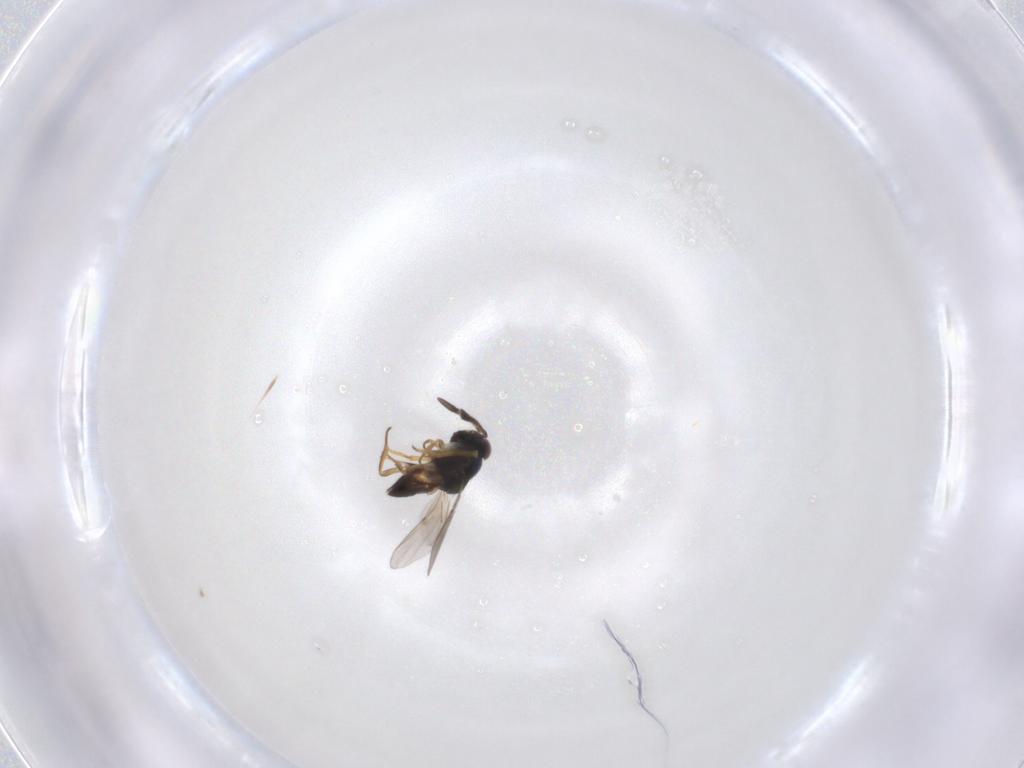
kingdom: Animalia
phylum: Arthropoda
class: Insecta
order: Hymenoptera
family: Encyrtidae
